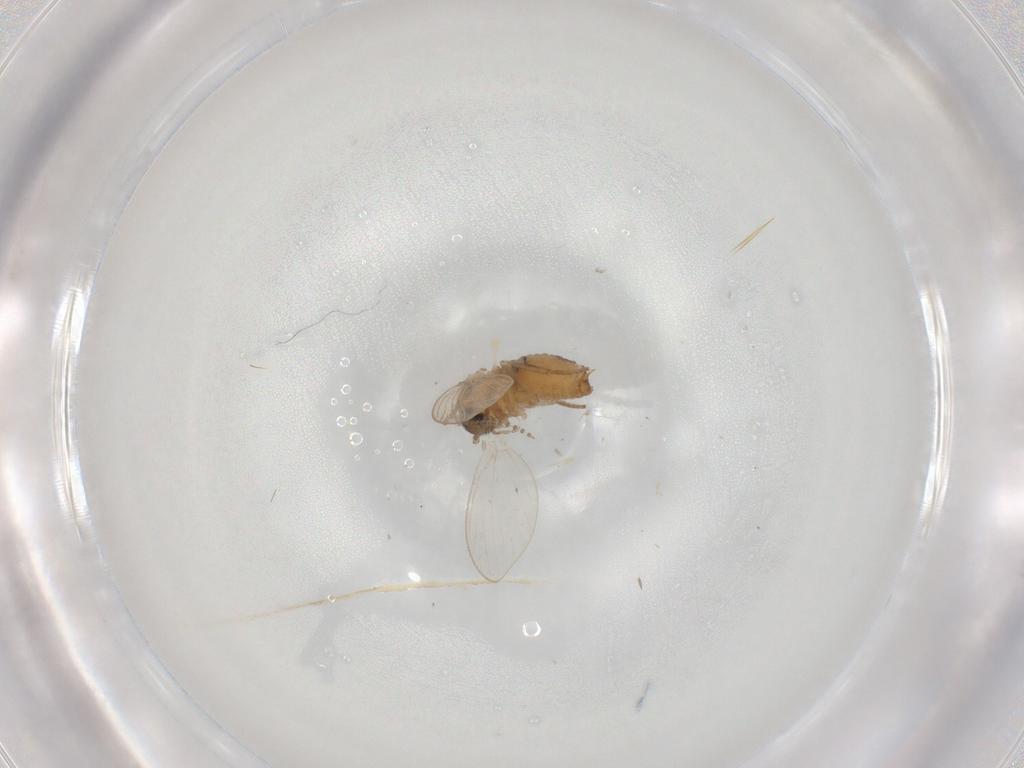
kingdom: Animalia
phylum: Arthropoda
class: Insecta
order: Diptera
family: Psychodidae
